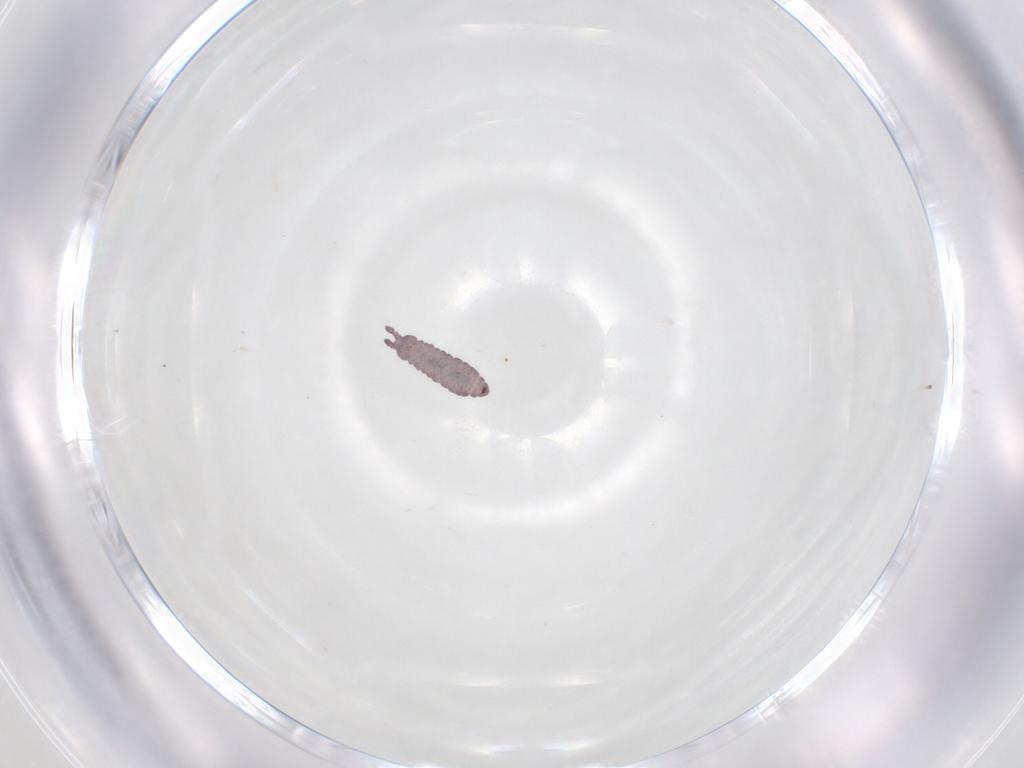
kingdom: Animalia
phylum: Arthropoda
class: Collembola
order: Poduromorpha
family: Hypogastruridae
